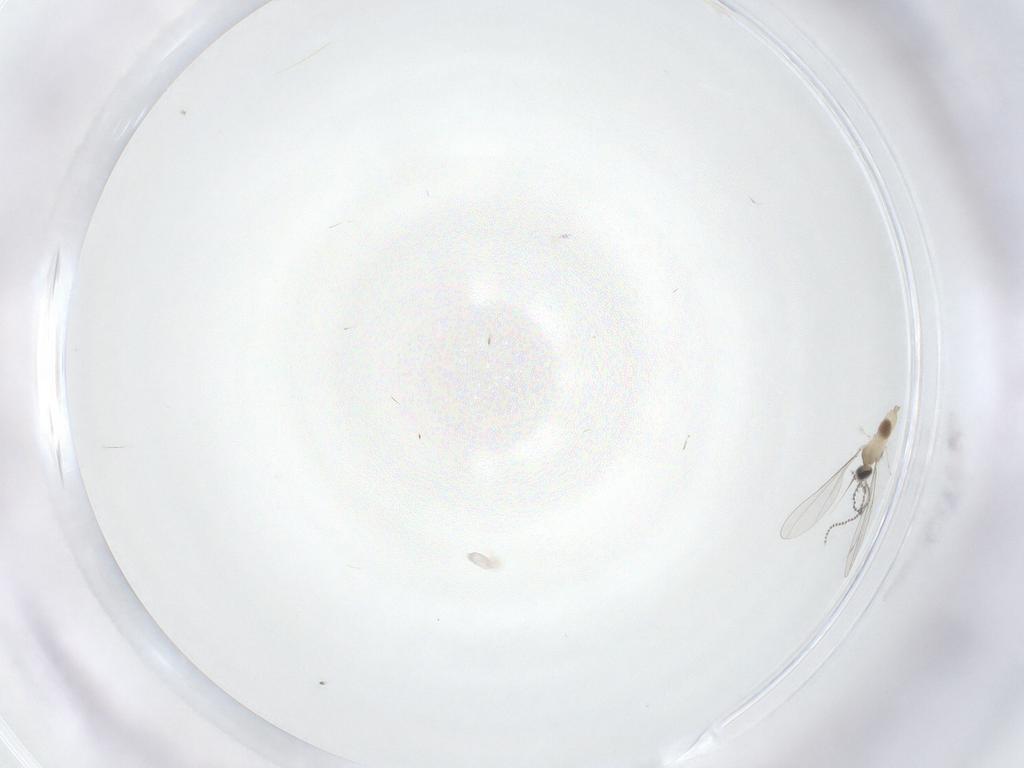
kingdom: Animalia
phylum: Arthropoda
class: Insecta
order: Diptera
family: Cecidomyiidae
